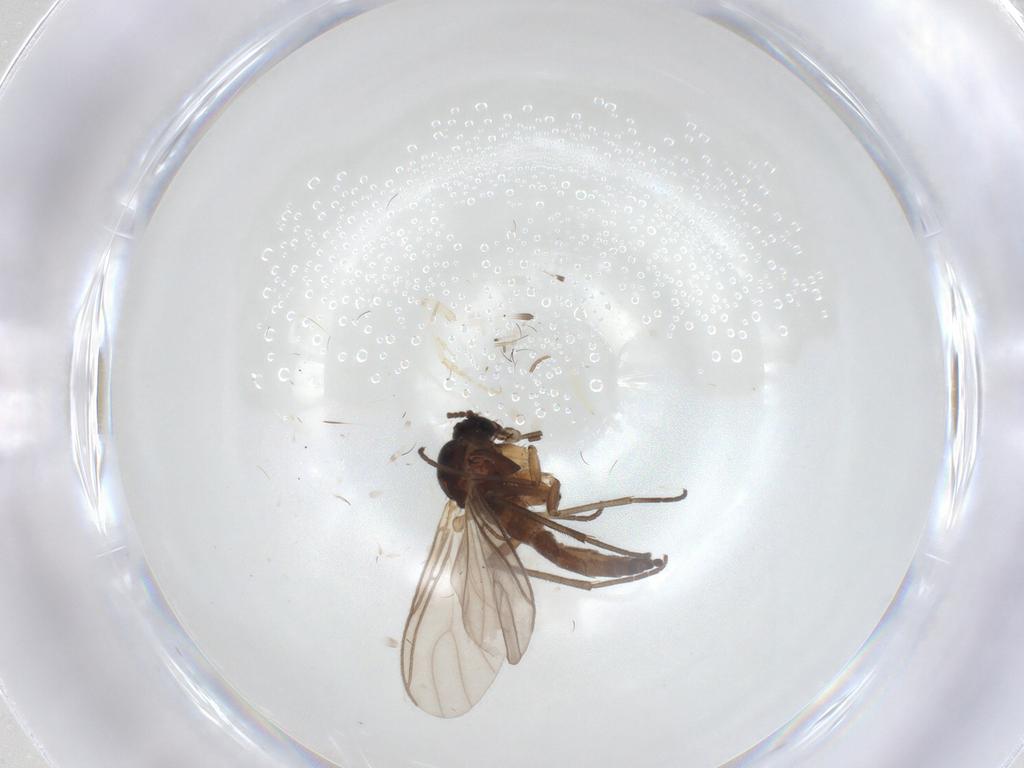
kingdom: Animalia
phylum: Arthropoda
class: Insecta
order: Diptera
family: Sciaridae
